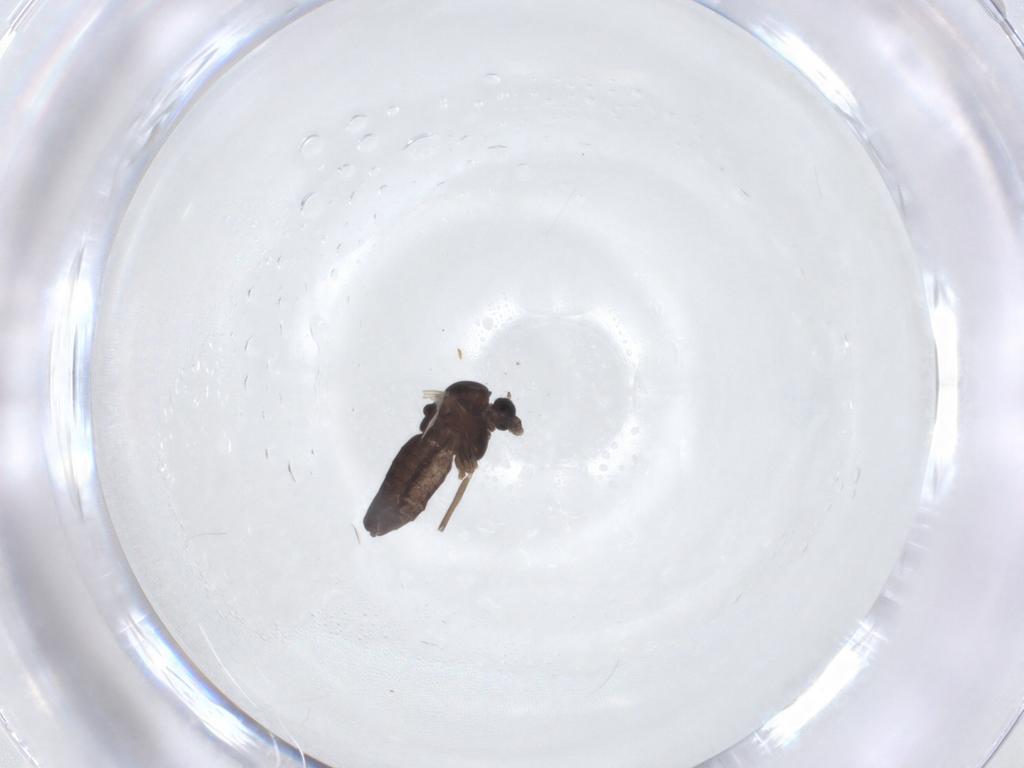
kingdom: Animalia
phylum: Arthropoda
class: Insecta
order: Diptera
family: Chironomidae
